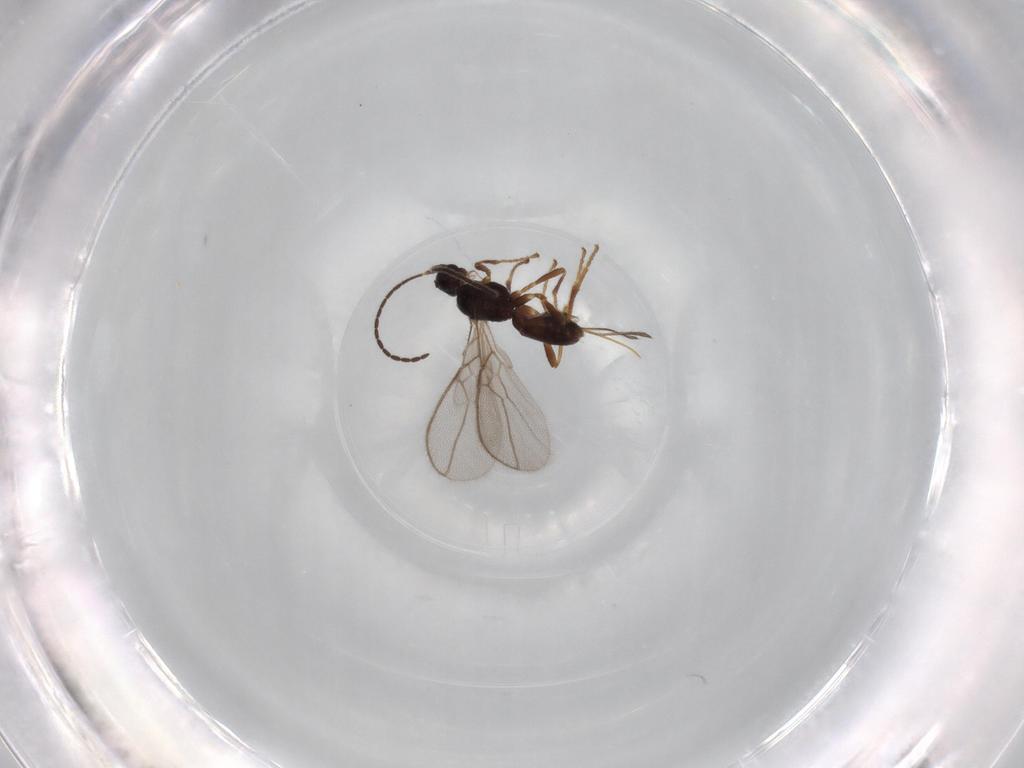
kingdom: Animalia
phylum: Arthropoda
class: Insecta
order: Hymenoptera
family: Braconidae
